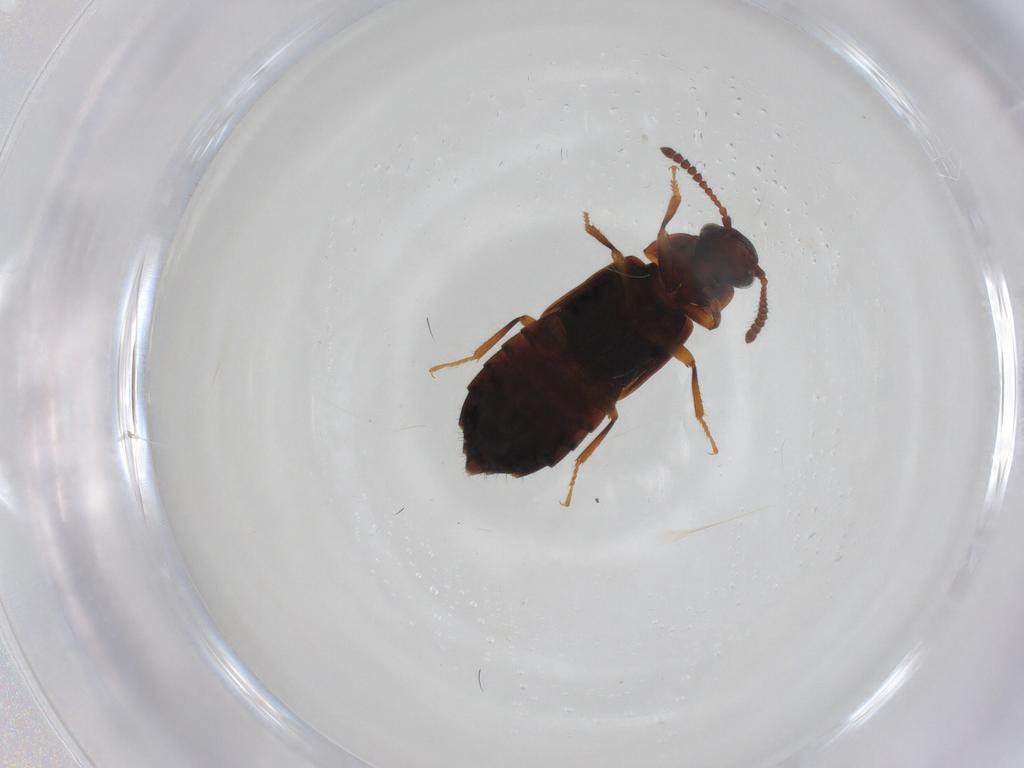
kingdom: Animalia
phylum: Arthropoda
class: Insecta
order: Coleoptera
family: Staphylinidae
